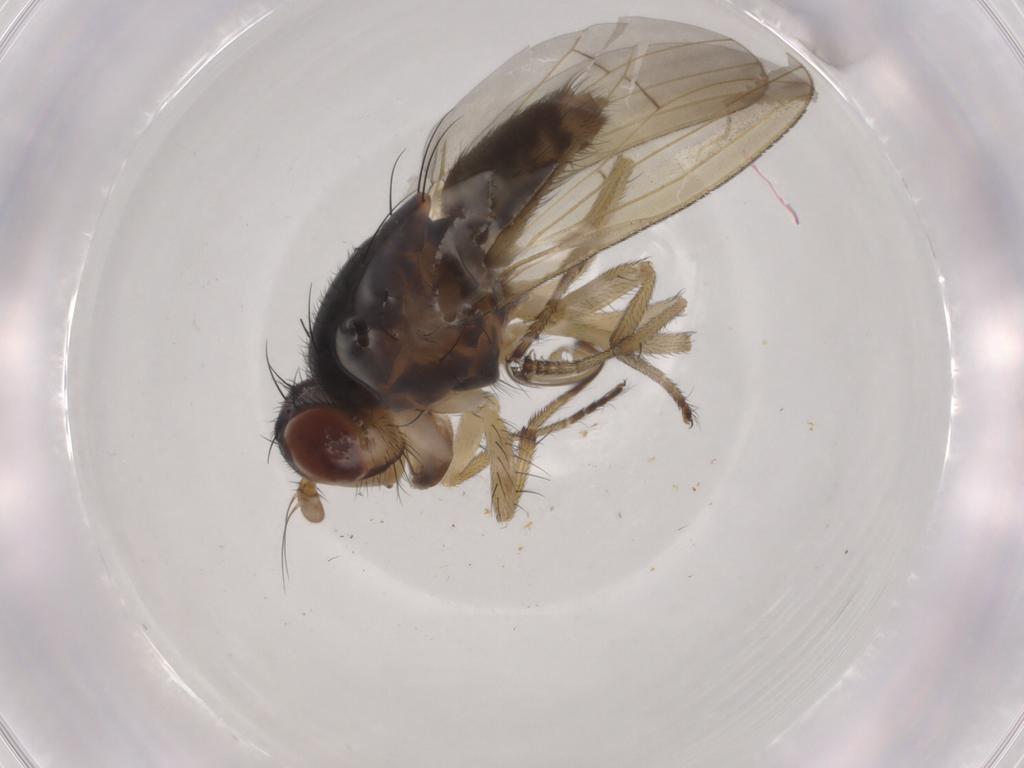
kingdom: Animalia
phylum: Arthropoda
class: Insecta
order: Diptera
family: Lauxaniidae
